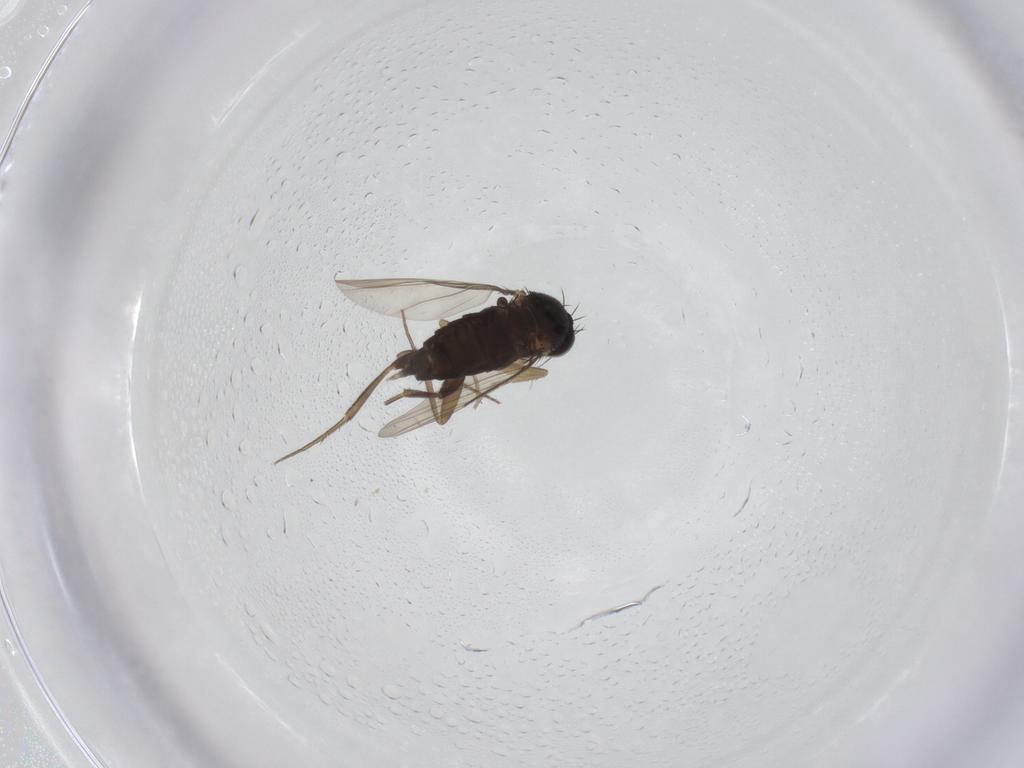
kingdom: Animalia
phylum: Arthropoda
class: Insecta
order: Diptera
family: Phoridae
